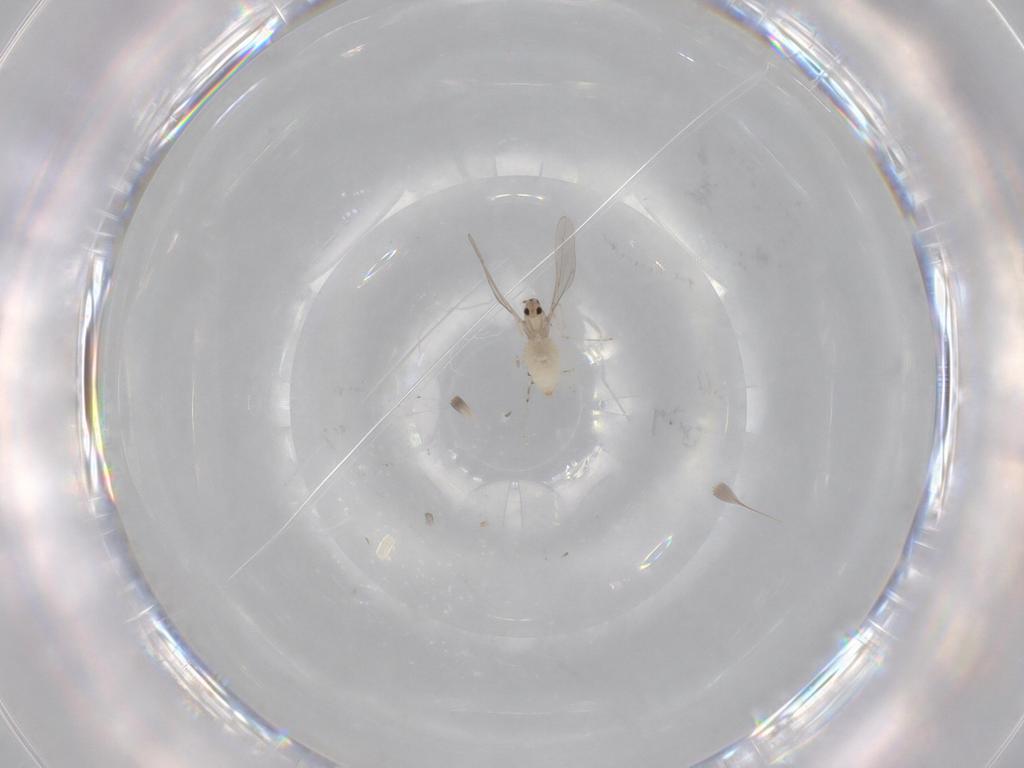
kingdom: Animalia
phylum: Arthropoda
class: Insecta
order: Diptera
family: Cecidomyiidae
